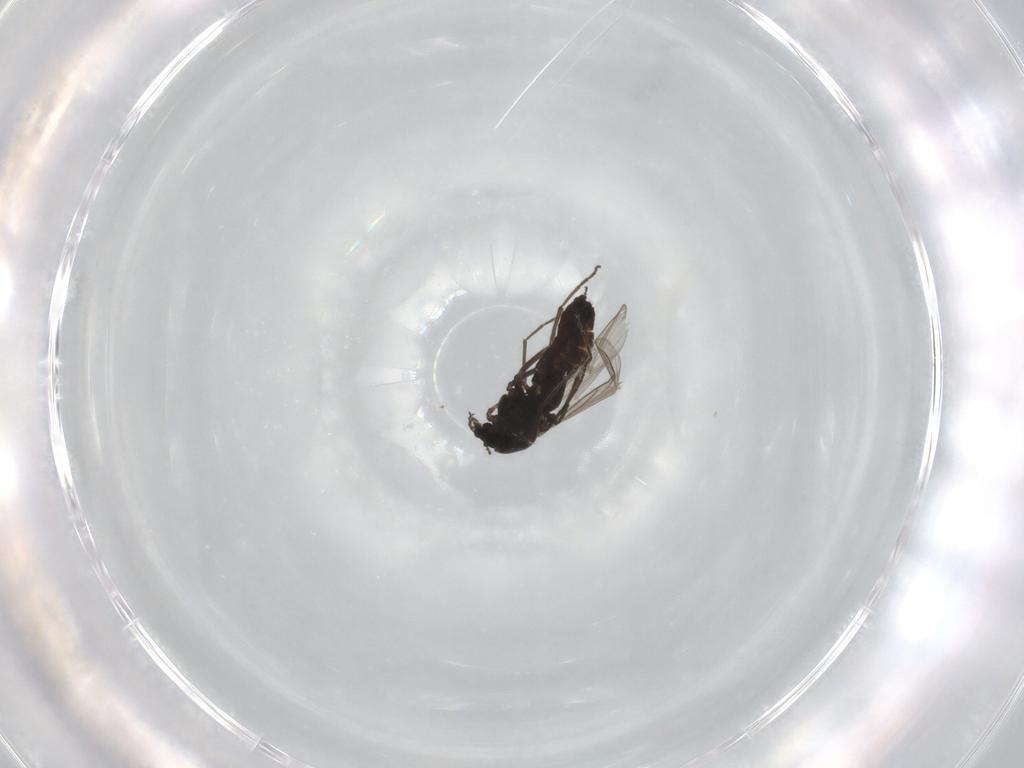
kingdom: Animalia
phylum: Arthropoda
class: Insecta
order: Diptera
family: Chironomidae
